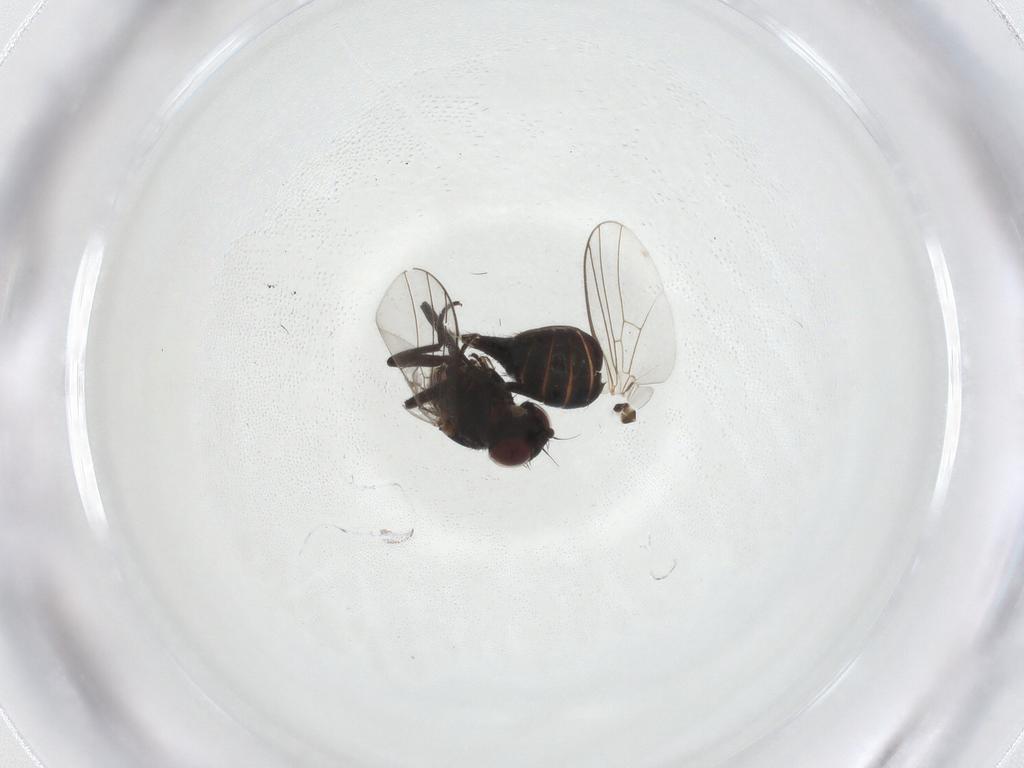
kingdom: Animalia
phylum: Arthropoda
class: Insecta
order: Diptera
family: Agromyzidae
